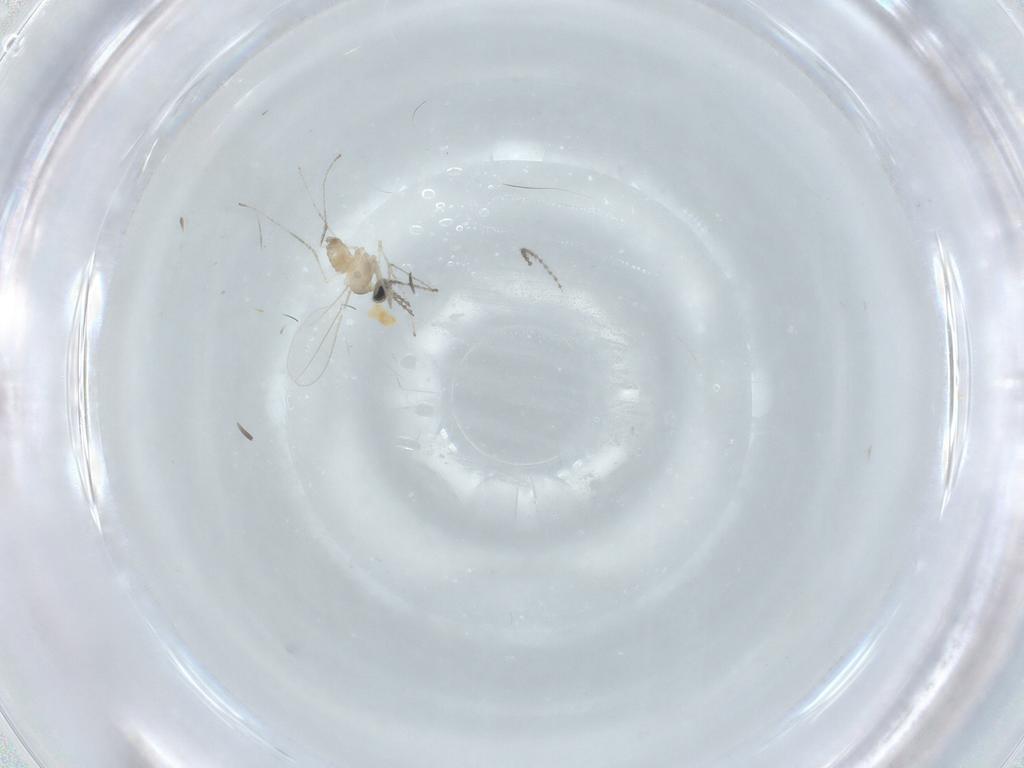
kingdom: Animalia
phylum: Arthropoda
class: Insecta
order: Diptera
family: Cecidomyiidae
